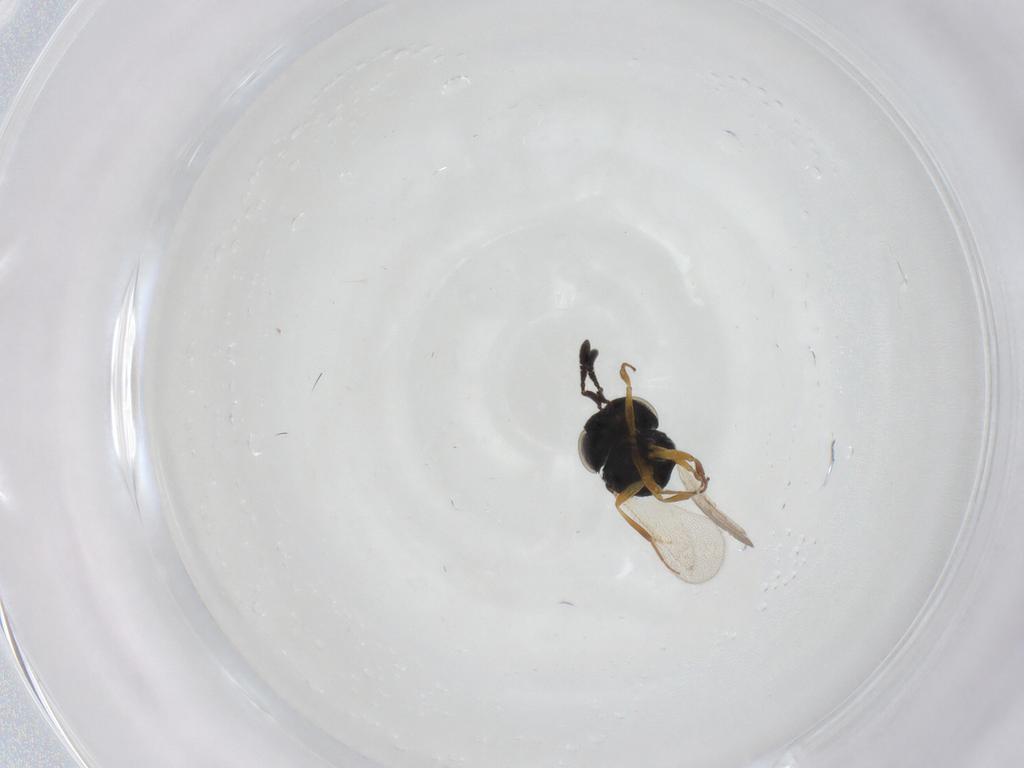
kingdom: Animalia
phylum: Arthropoda
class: Insecta
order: Hymenoptera
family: Scelionidae
